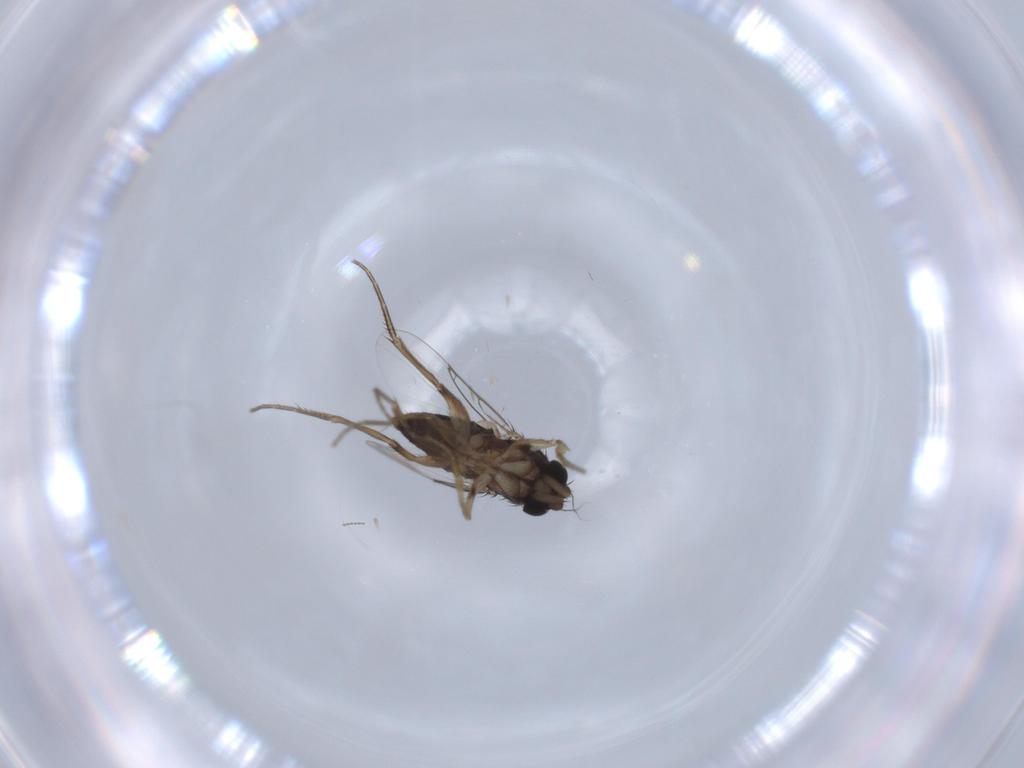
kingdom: Animalia
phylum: Arthropoda
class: Insecta
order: Diptera
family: Phoridae
